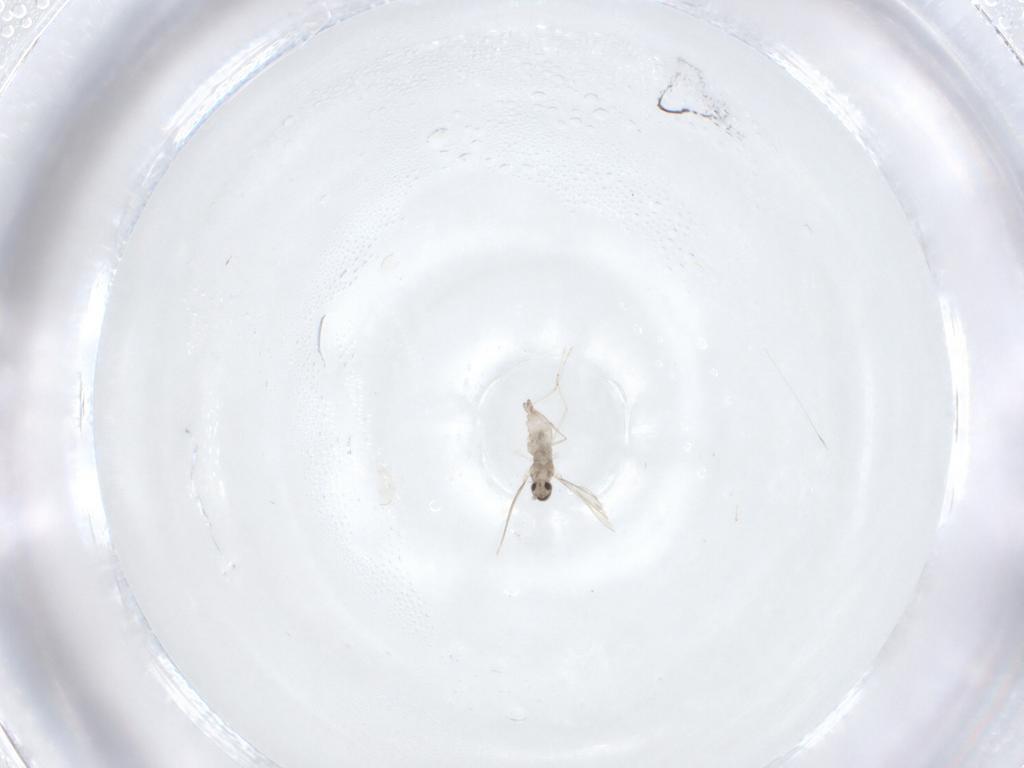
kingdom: Animalia
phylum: Arthropoda
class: Insecta
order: Diptera
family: Cecidomyiidae
